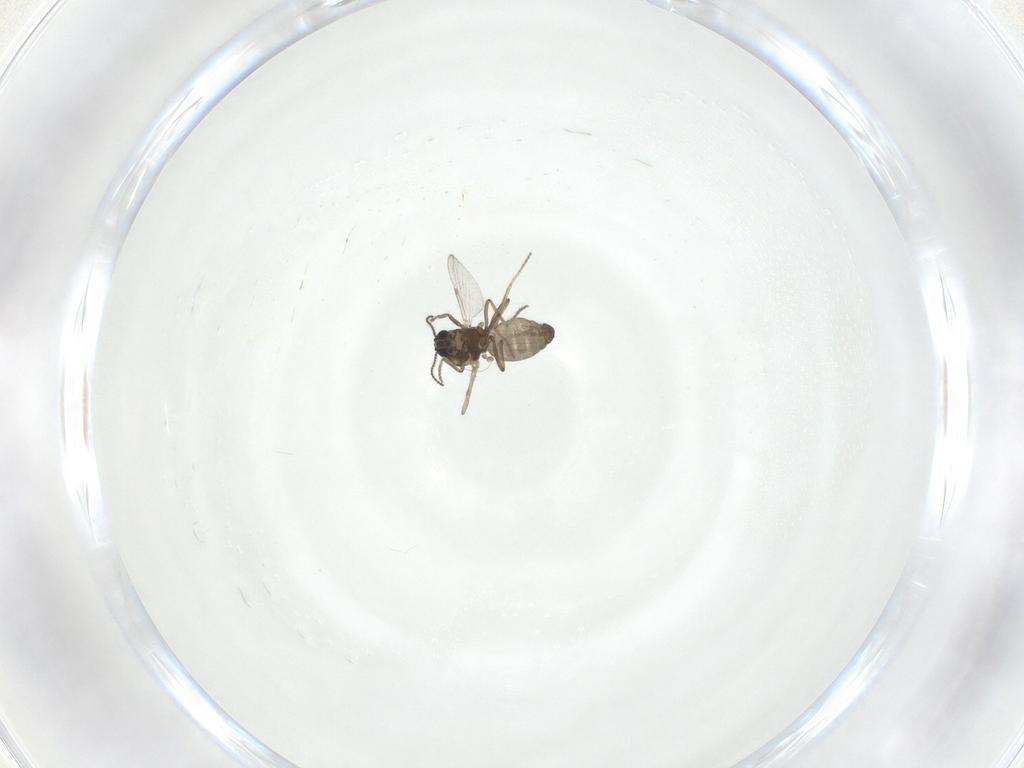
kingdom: Animalia
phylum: Arthropoda
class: Insecta
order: Diptera
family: Ceratopogonidae
